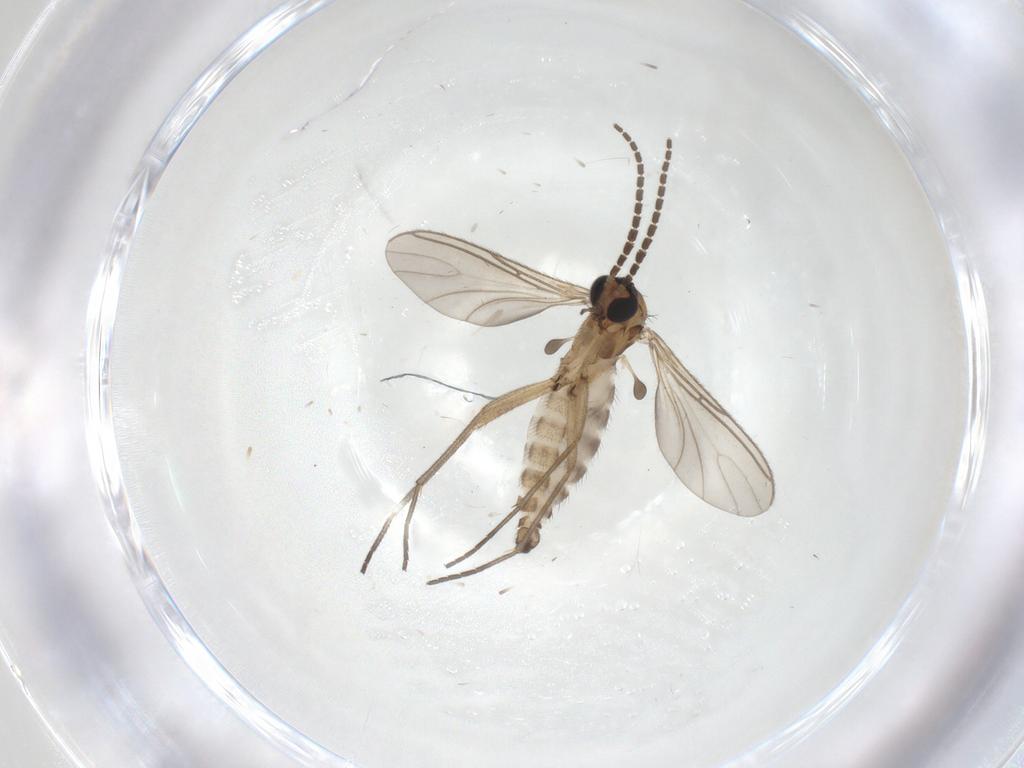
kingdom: Animalia
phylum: Arthropoda
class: Insecta
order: Diptera
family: Sciaridae
